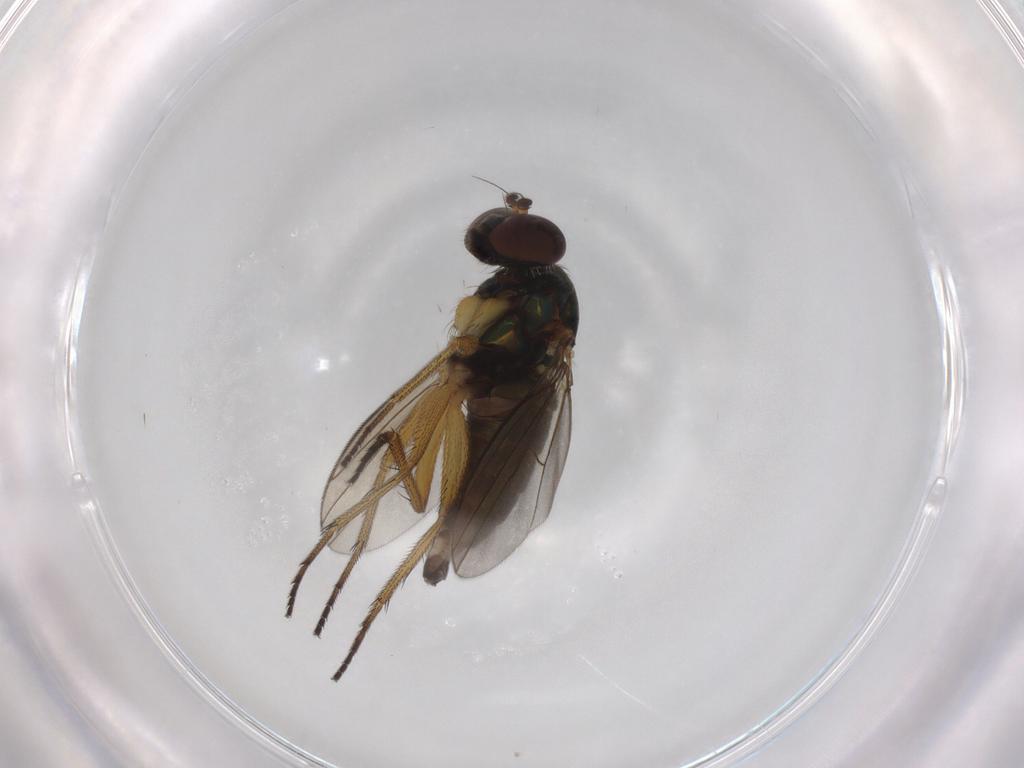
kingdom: Animalia
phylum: Arthropoda
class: Insecta
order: Diptera
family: Dolichopodidae
